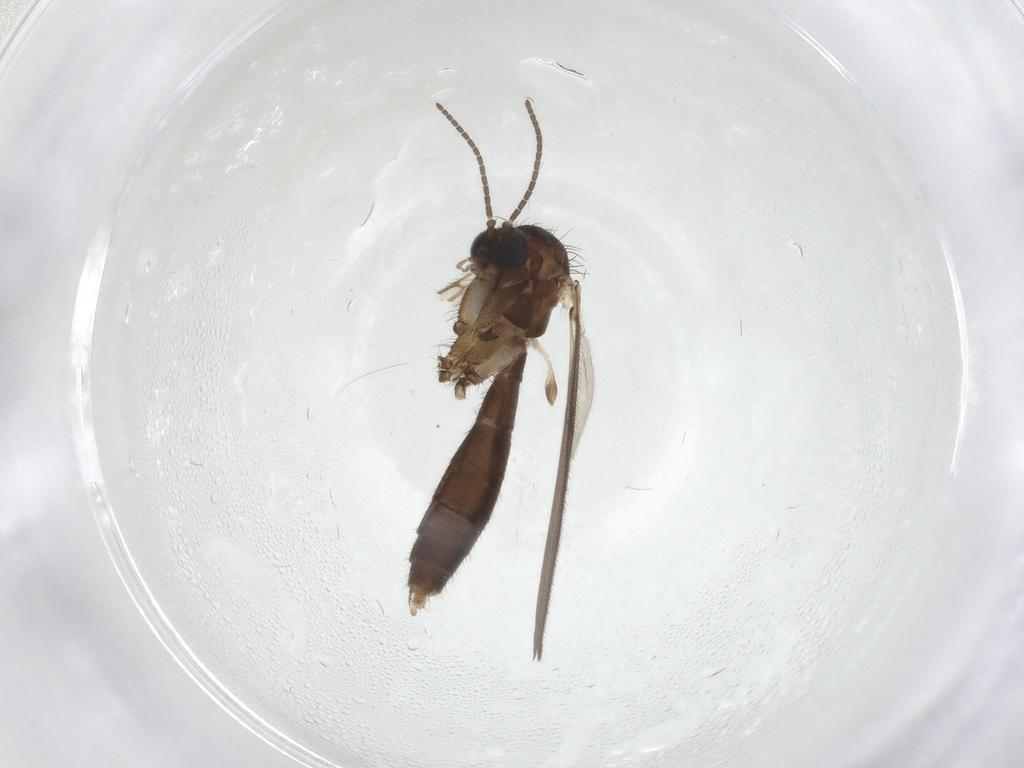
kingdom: Animalia
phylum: Arthropoda
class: Insecta
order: Diptera
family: Mycetophilidae
